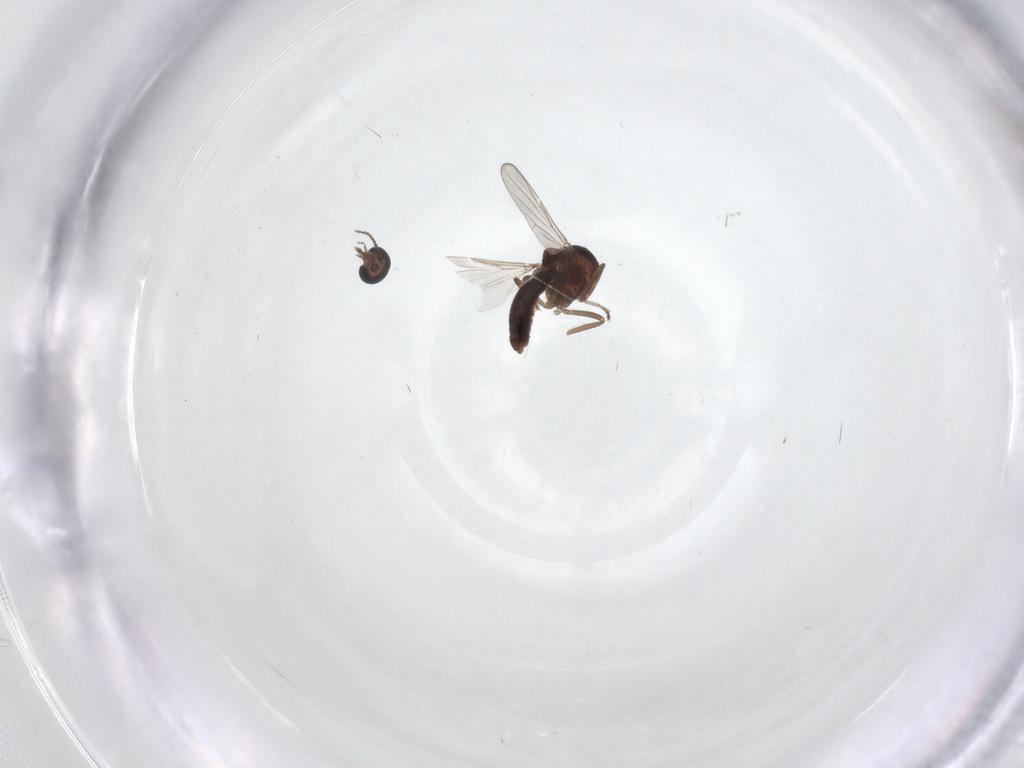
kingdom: Animalia
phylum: Arthropoda
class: Insecta
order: Diptera
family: Ceratopogonidae
